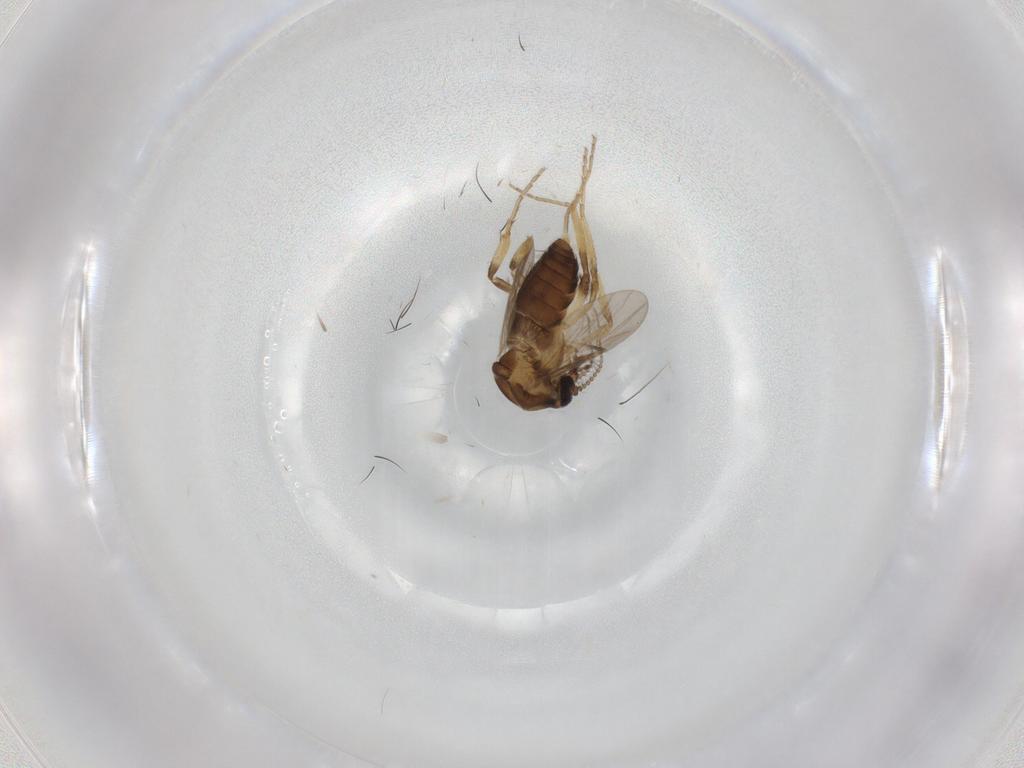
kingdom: Animalia
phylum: Arthropoda
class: Insecta
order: Diptera
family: Ceratopogonidae
